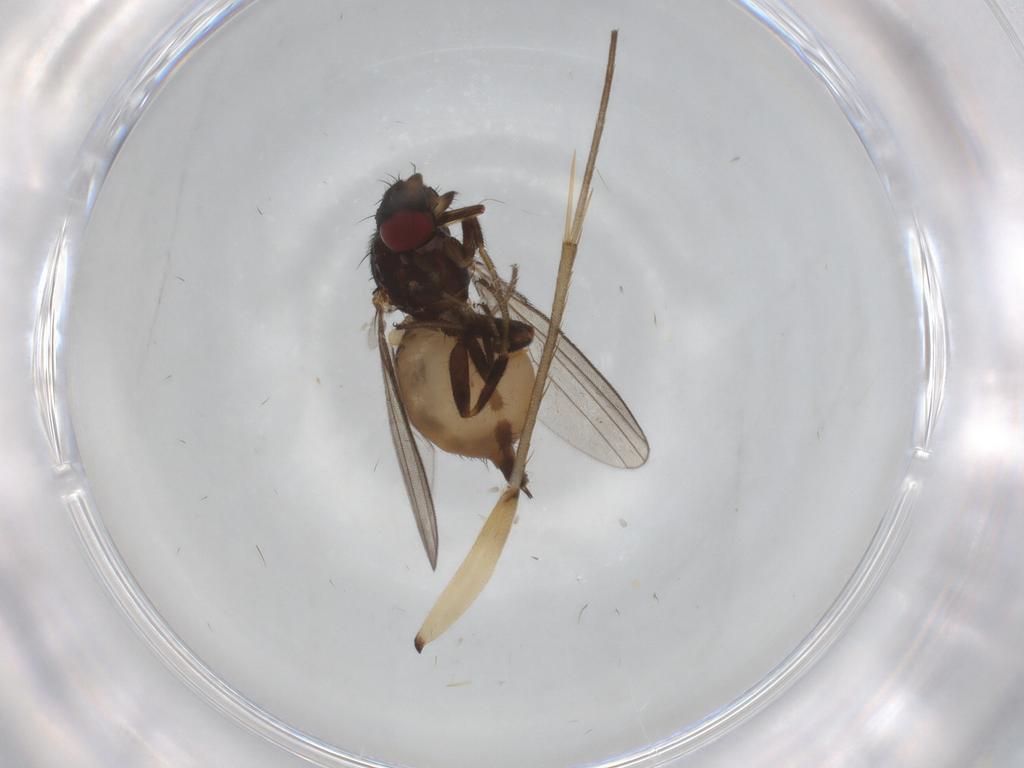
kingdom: Animalia
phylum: Arthropoda
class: Insecta
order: Diptera
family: Milichiidae
